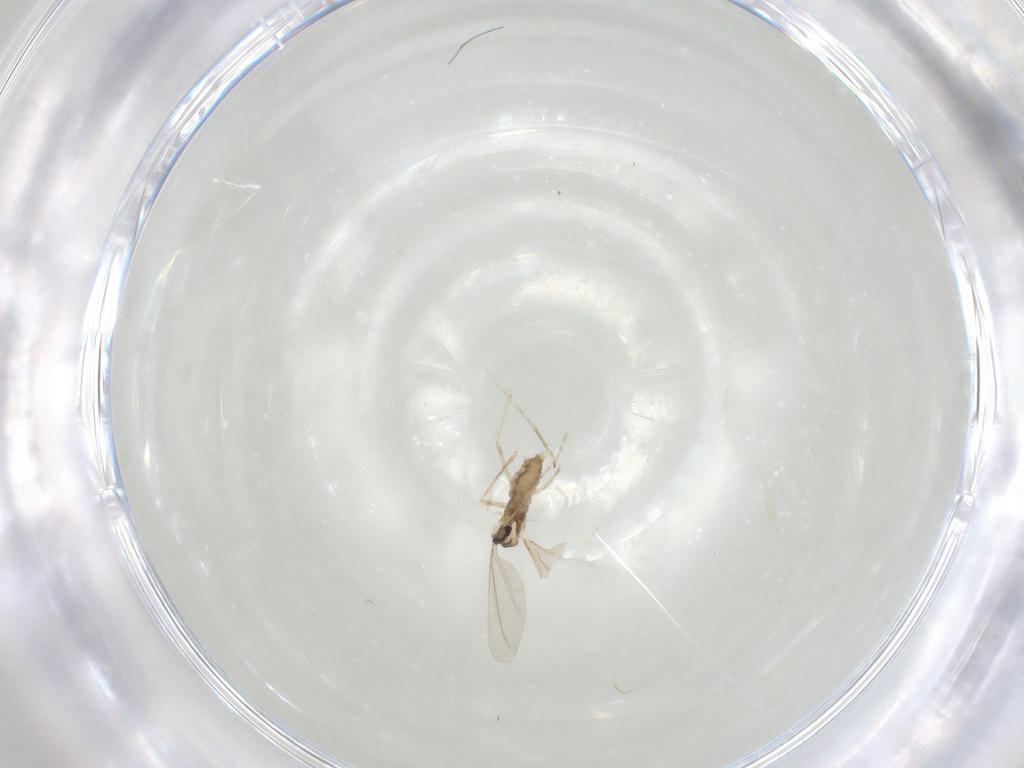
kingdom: Animalia
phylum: Arthropoda
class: Insecta
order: Diptera
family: Cecidomyiidae
